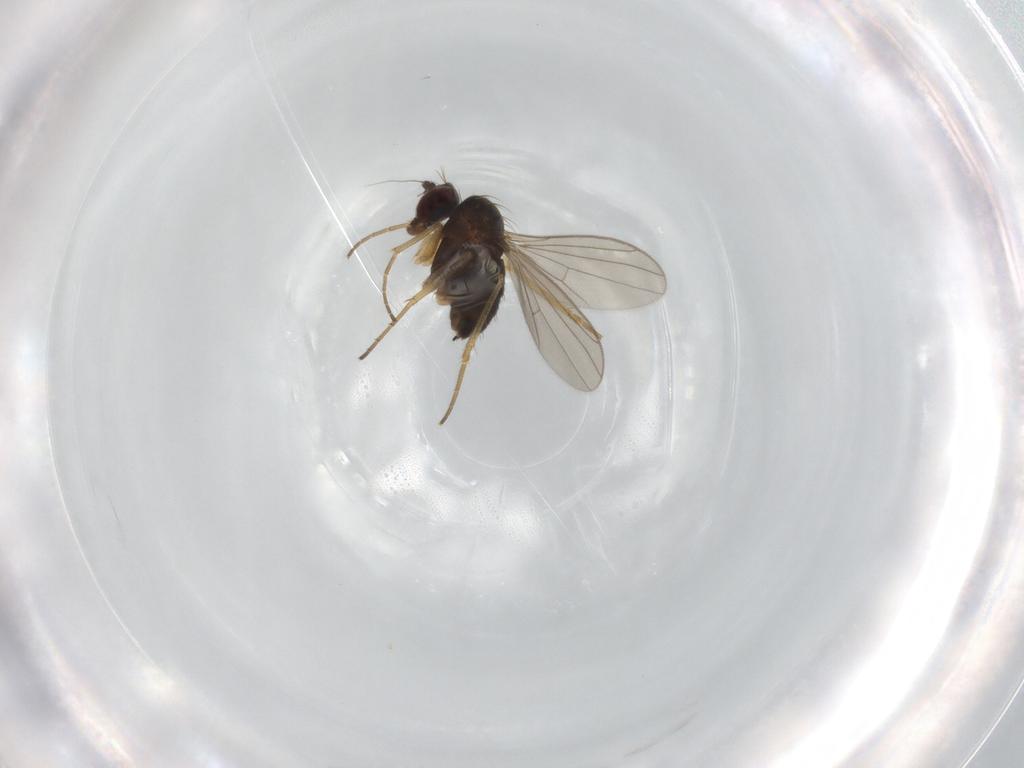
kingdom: Animalia
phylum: Arthropoda
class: Insecta
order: Diptera
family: Dolichopodidae
